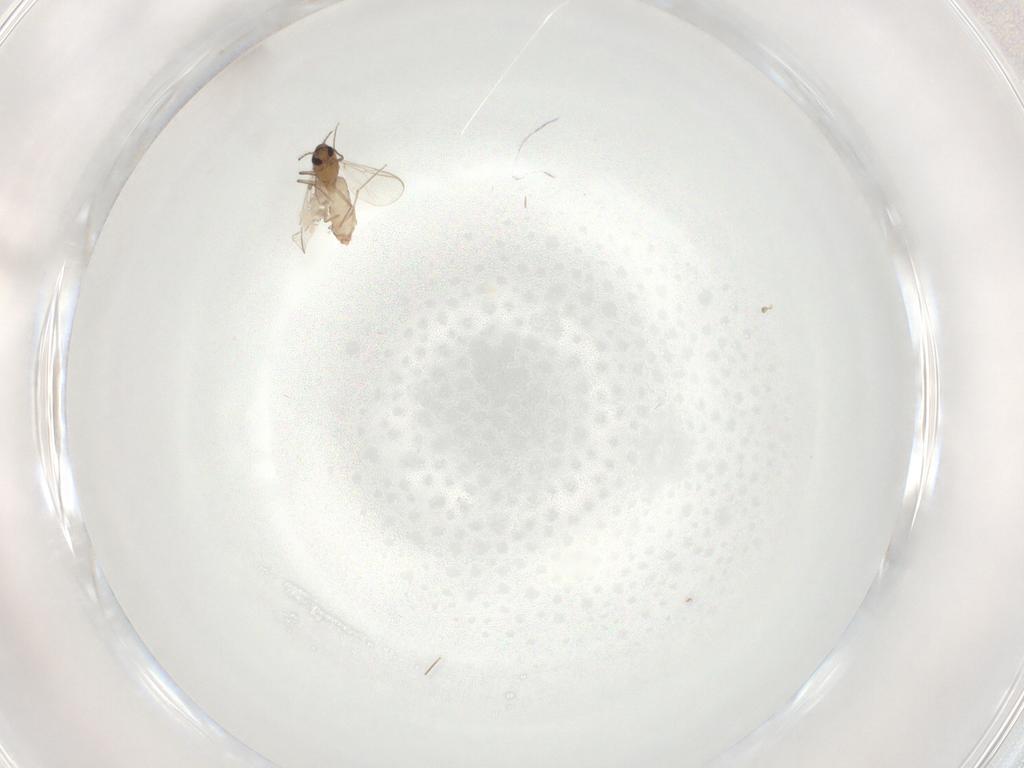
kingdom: Animalia
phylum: Arthropoda
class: Insecta
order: Diptera
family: Chironomidae
